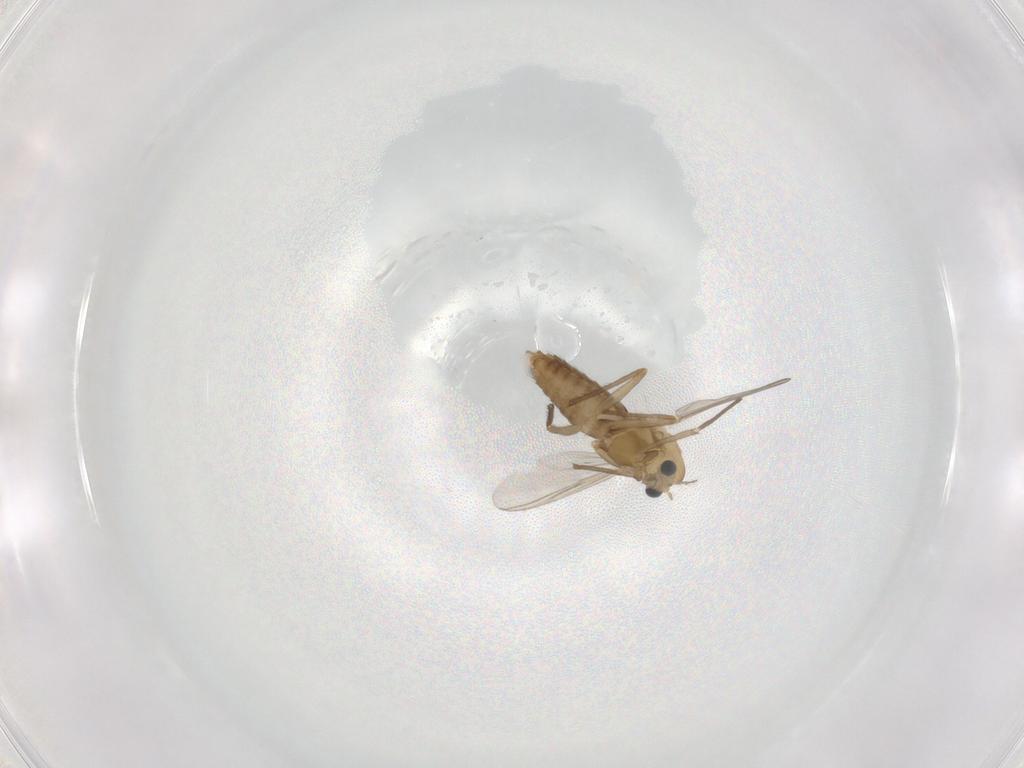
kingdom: Animalia
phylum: Arthropoda
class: Insecta
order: Diptera
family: Chironomidae
